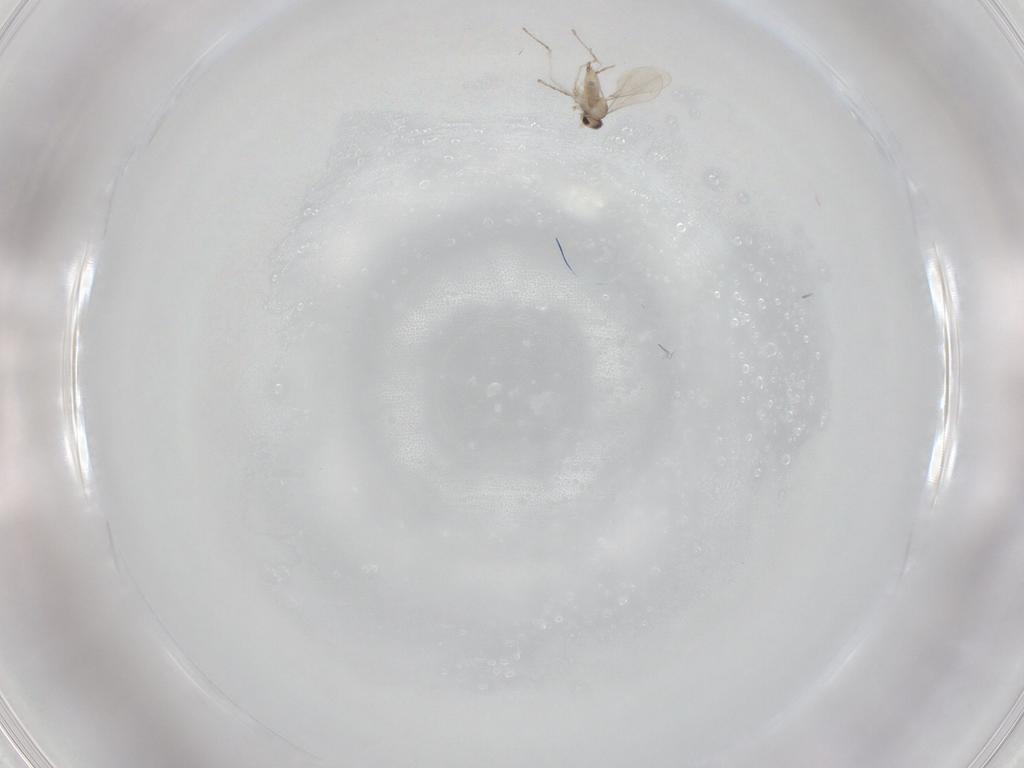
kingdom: Animalia
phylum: Arthropoda
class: Insecta
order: Diptera
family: Cecidomyiidae
